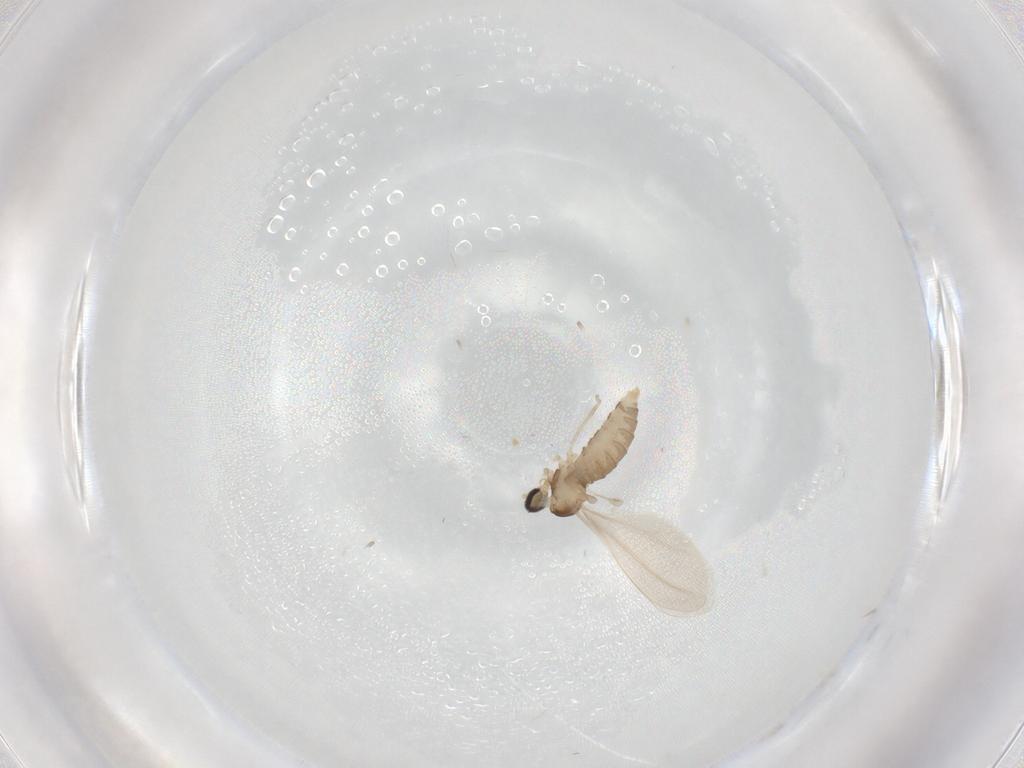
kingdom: Animalia
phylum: Arthropoda
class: Insecta
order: Diptera
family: Cecidomyiidae
